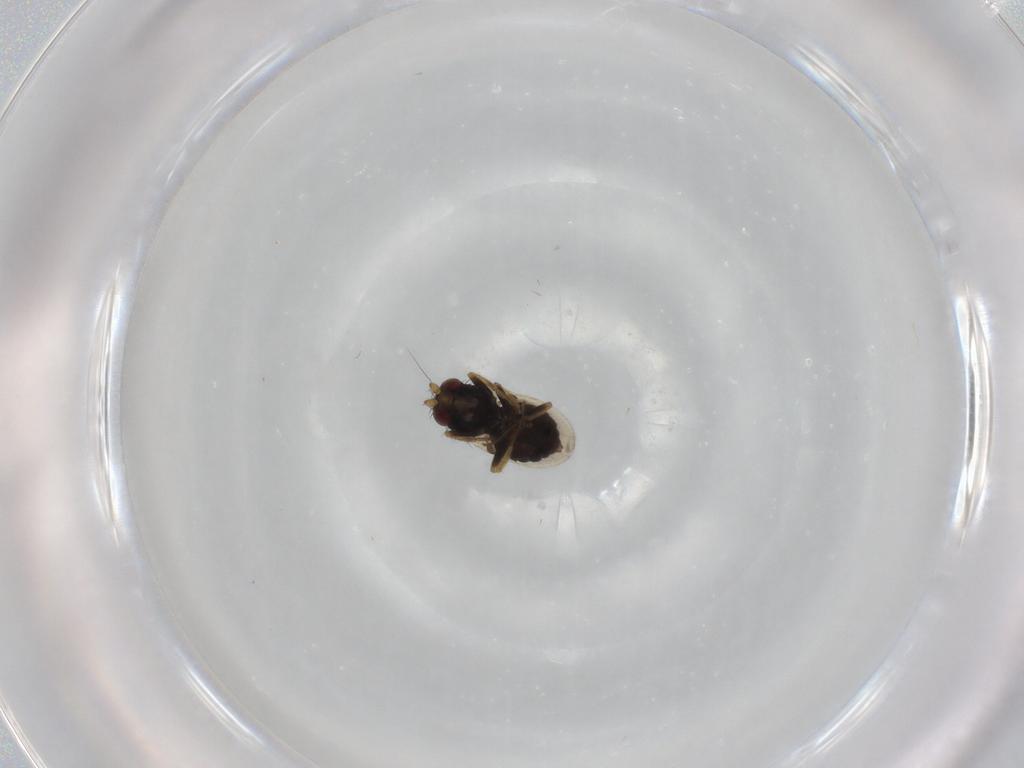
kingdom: Animalia
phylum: Arthropoda
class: Insecta
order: Diptera
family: Sphaeroceridae
